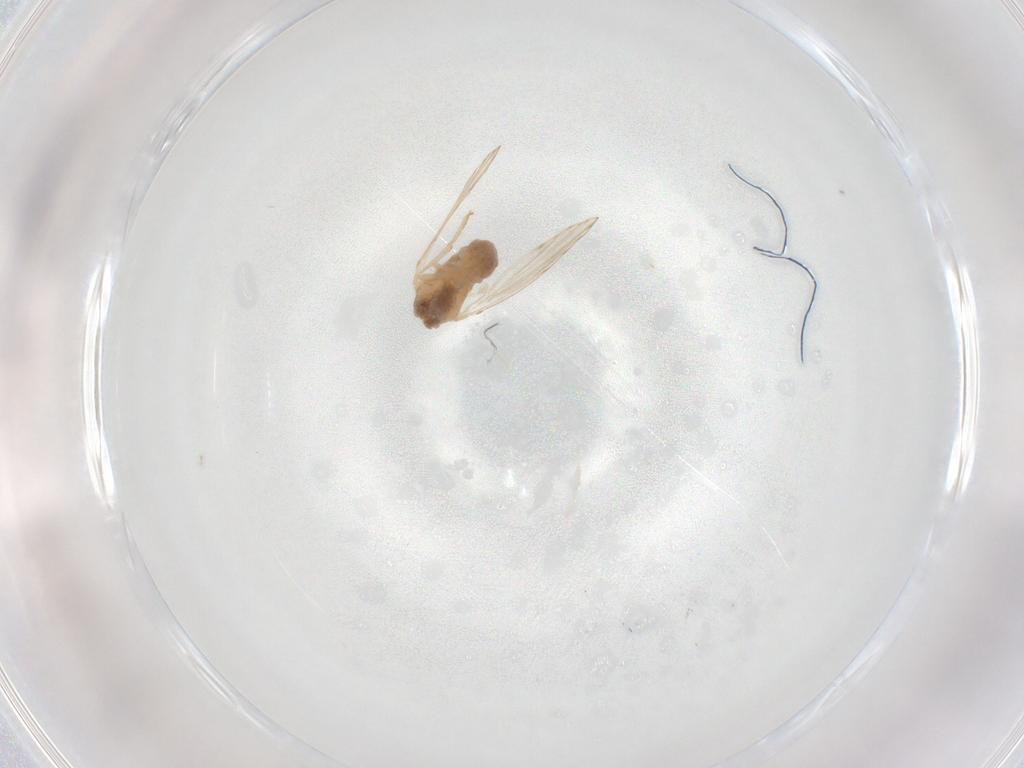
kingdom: Animalia
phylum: Arthropoda
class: Insecta
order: Diptera
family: Psychodidae
